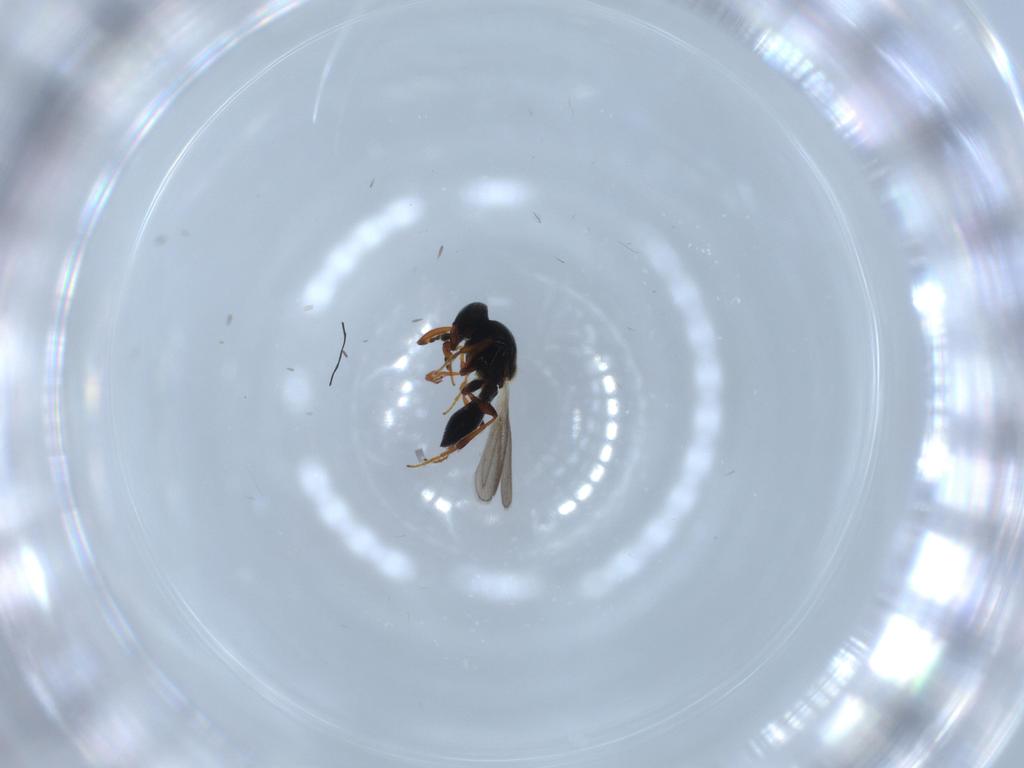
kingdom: Animalia
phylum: Arthropoda
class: Insecta
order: Hymenoptera
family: Platygastridae
